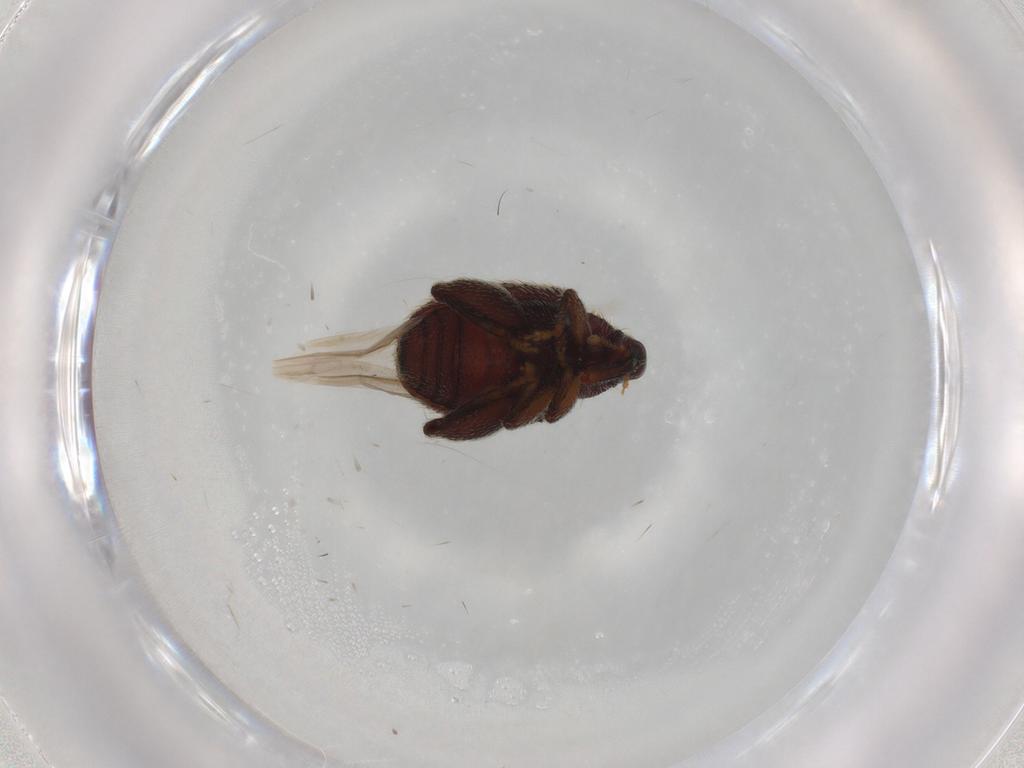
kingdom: Animalia
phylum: Arthropoda
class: Insecta
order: Coleoptera
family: Curculionidae
